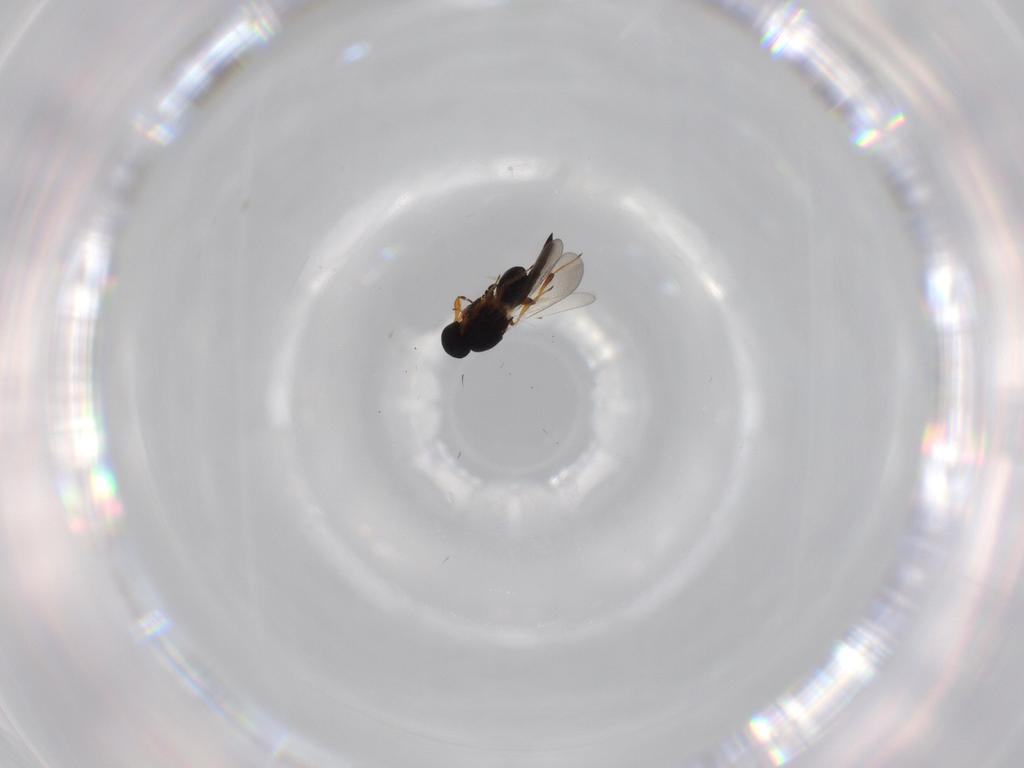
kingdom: Animalia
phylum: Arthropoda
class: Insecta
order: Hymenoptera
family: Platygastridae
